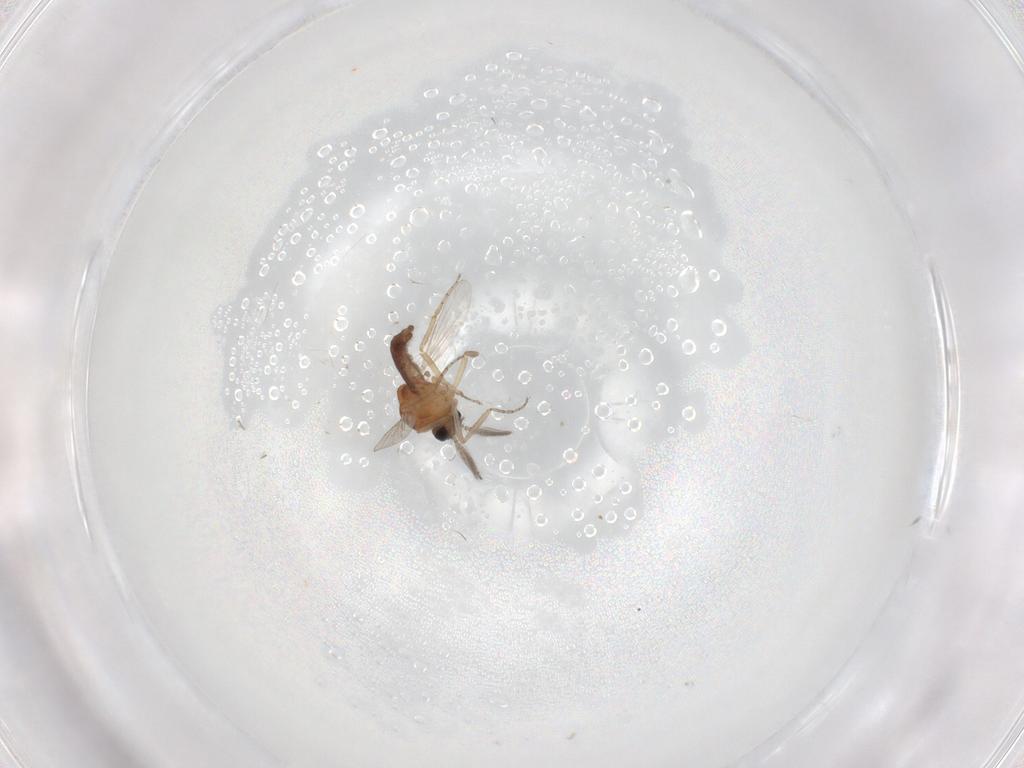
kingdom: Animalia
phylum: Arthropoda
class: Insecta
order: Diptera
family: Ceratopogonidae
